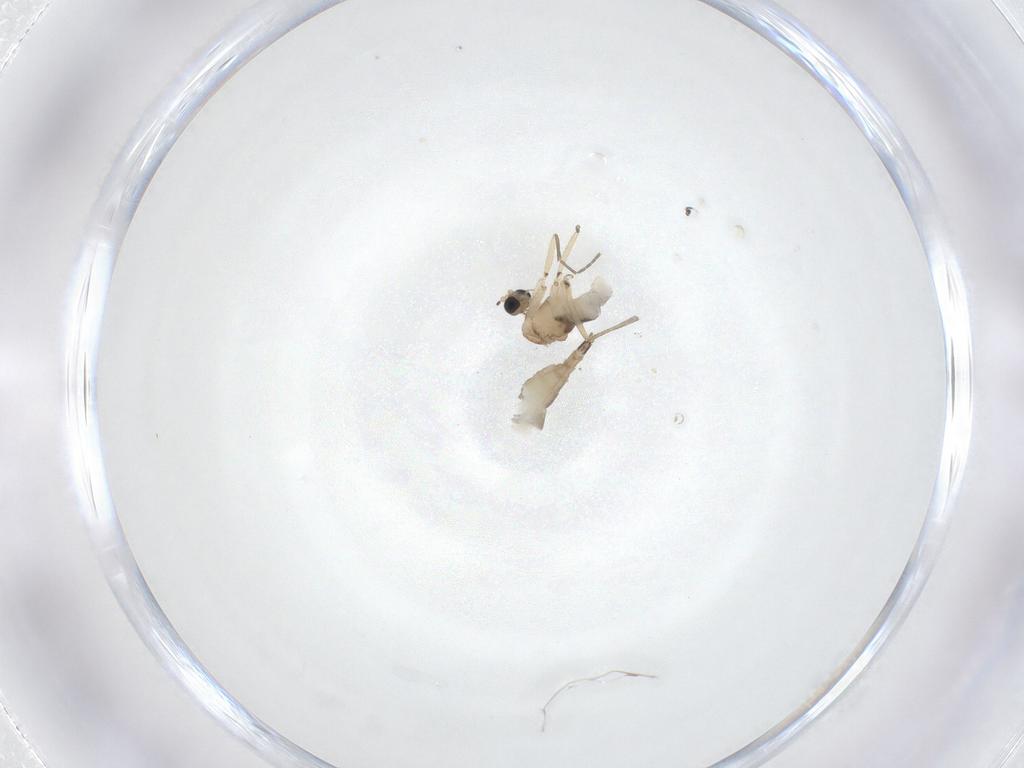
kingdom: Animalia
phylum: Arthropoda
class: Insecta
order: Diptera
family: Sciaridae
